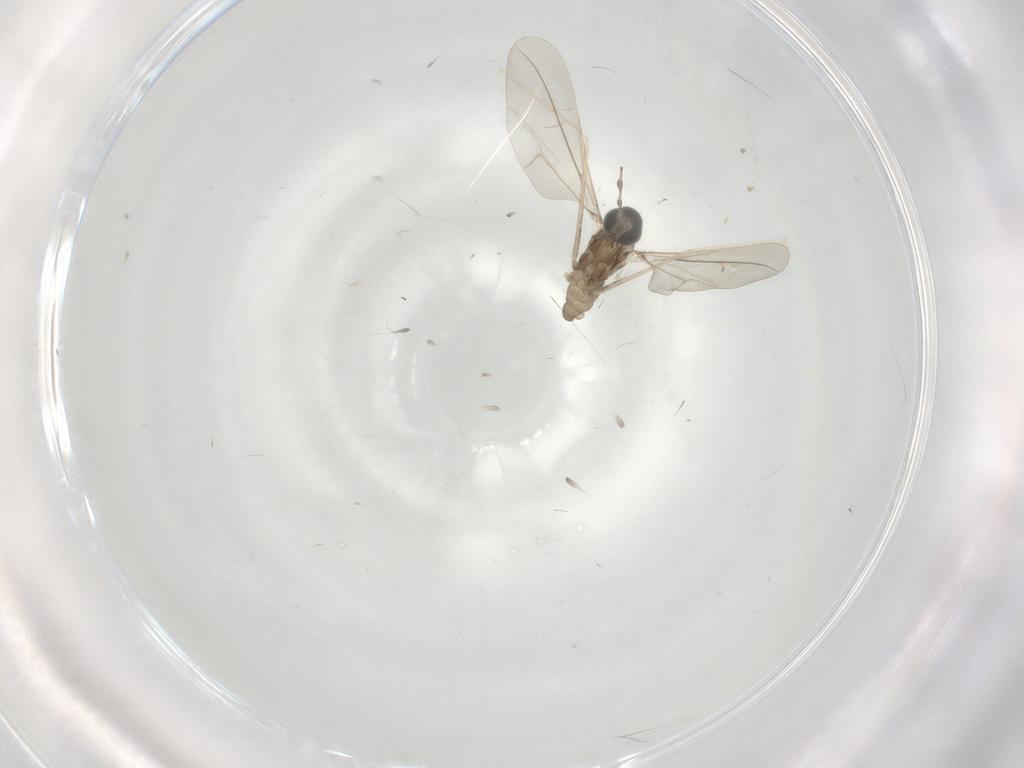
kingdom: Animalia
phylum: Arthropoda
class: Insecta
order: Diptera
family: Cecidomyiidae
